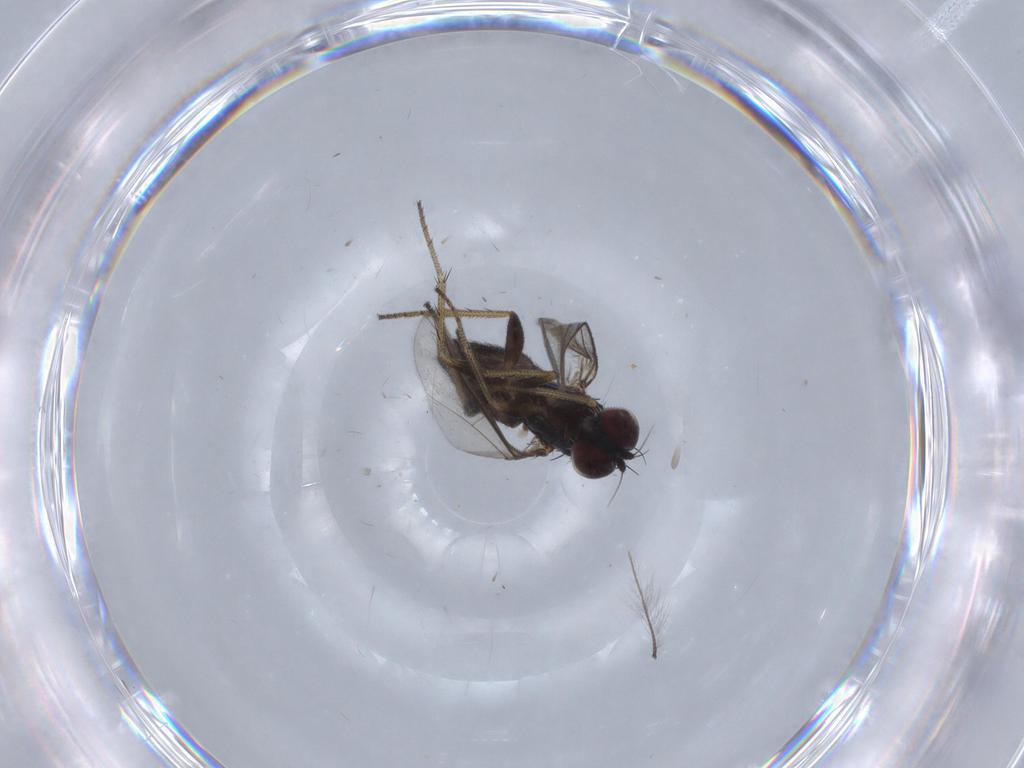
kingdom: Animalia
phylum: Arthropoda
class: Insecta
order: Diptera
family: Chironomidae
